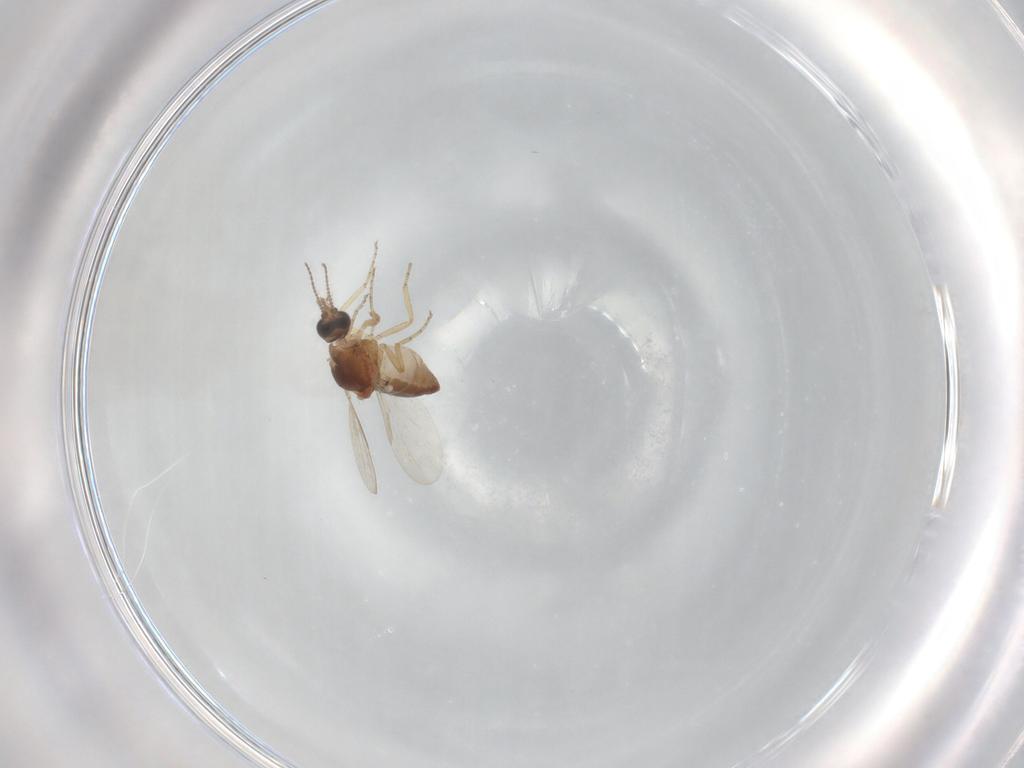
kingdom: Animalia
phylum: Arthropoda
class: Insecta
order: Diptera
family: Ceratopogonidae
